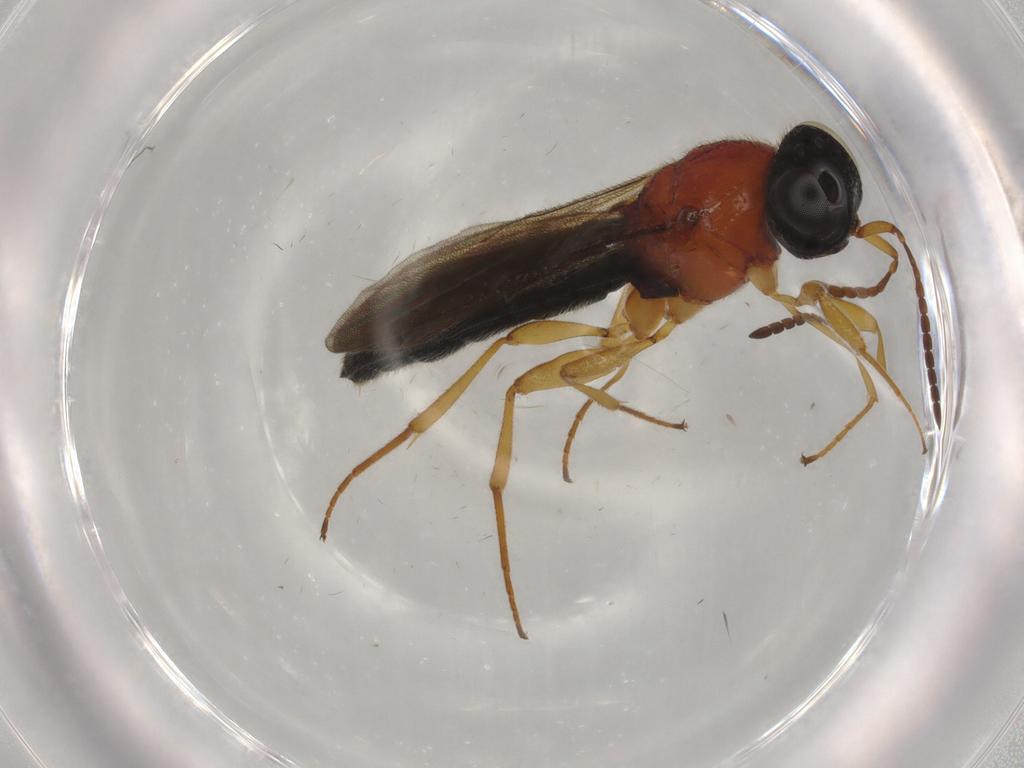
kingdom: Animalia
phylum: Arthropoda
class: Insecta
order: Hymenoptera
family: Scelionidae
